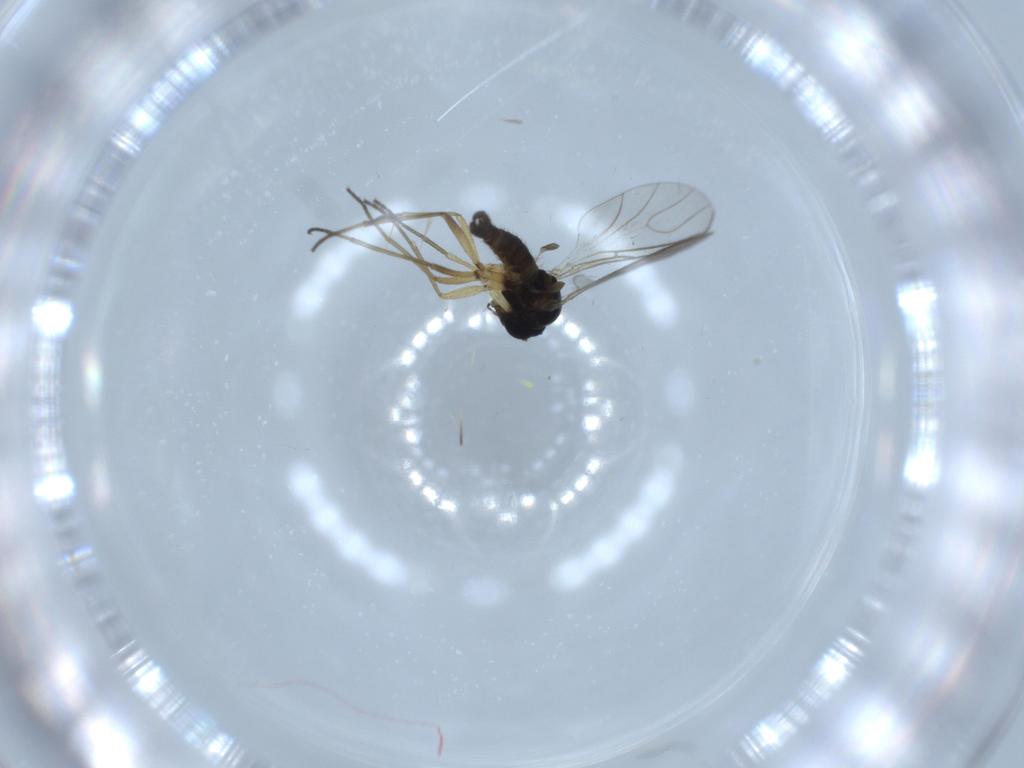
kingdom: Animalia
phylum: Arthropoda
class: Insecta
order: Diptera
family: Sciaridae
